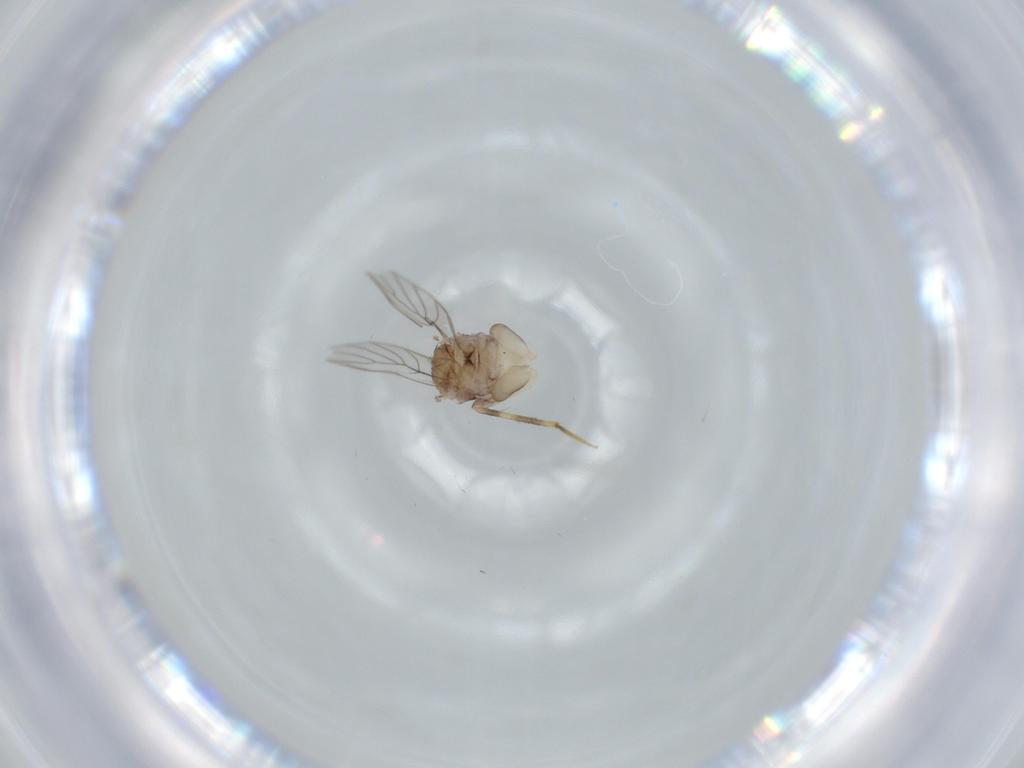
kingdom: Animalia
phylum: Arthropoda
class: Insecta
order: Psocodea
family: Lepidopsocidae
